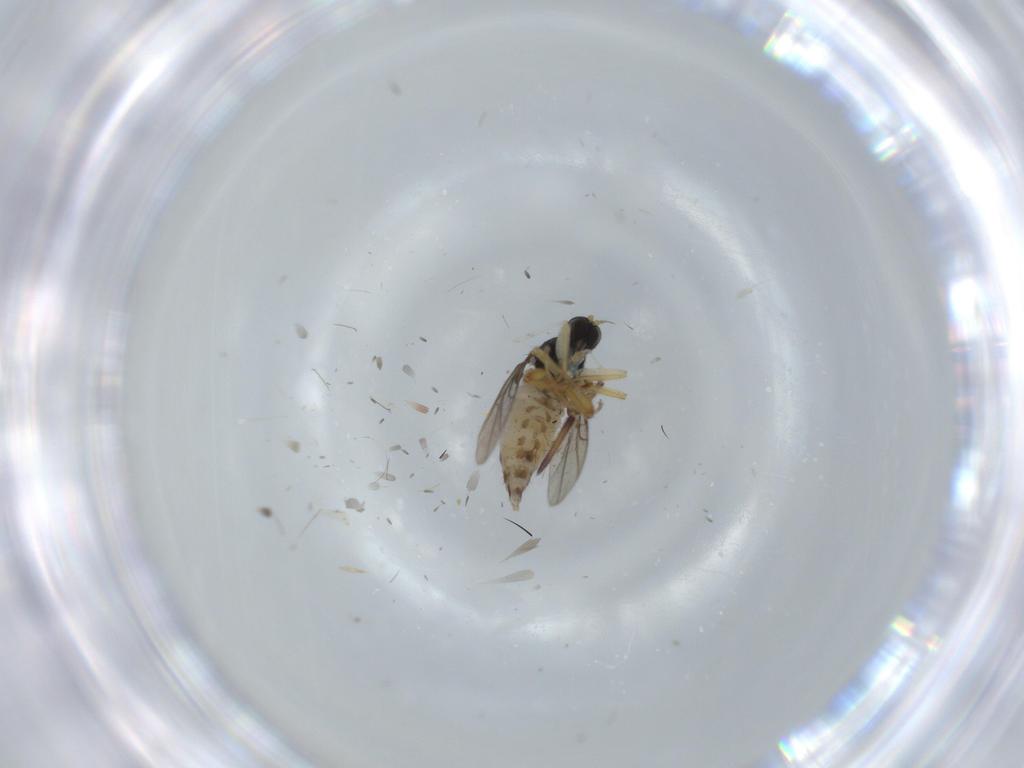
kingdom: Animalia
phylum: Arthropoda
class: Insecta
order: Diptera
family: Hybotidae
